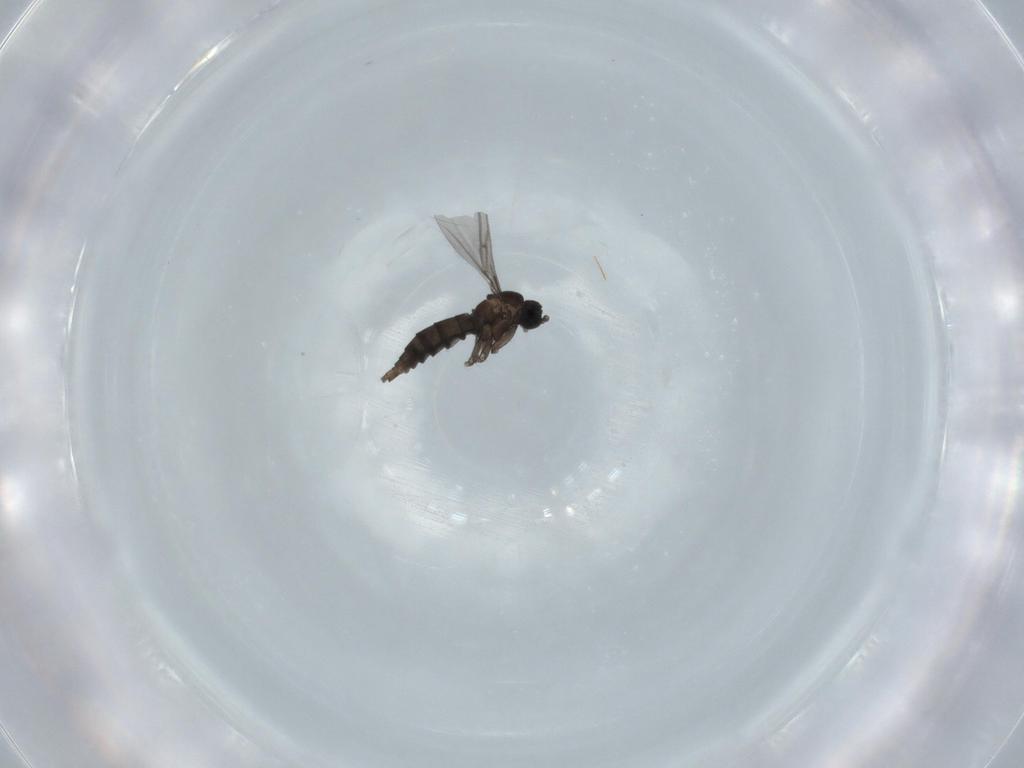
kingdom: Animalia
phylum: Arthropoda
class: Insecta
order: Diptera
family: Sciaridae
